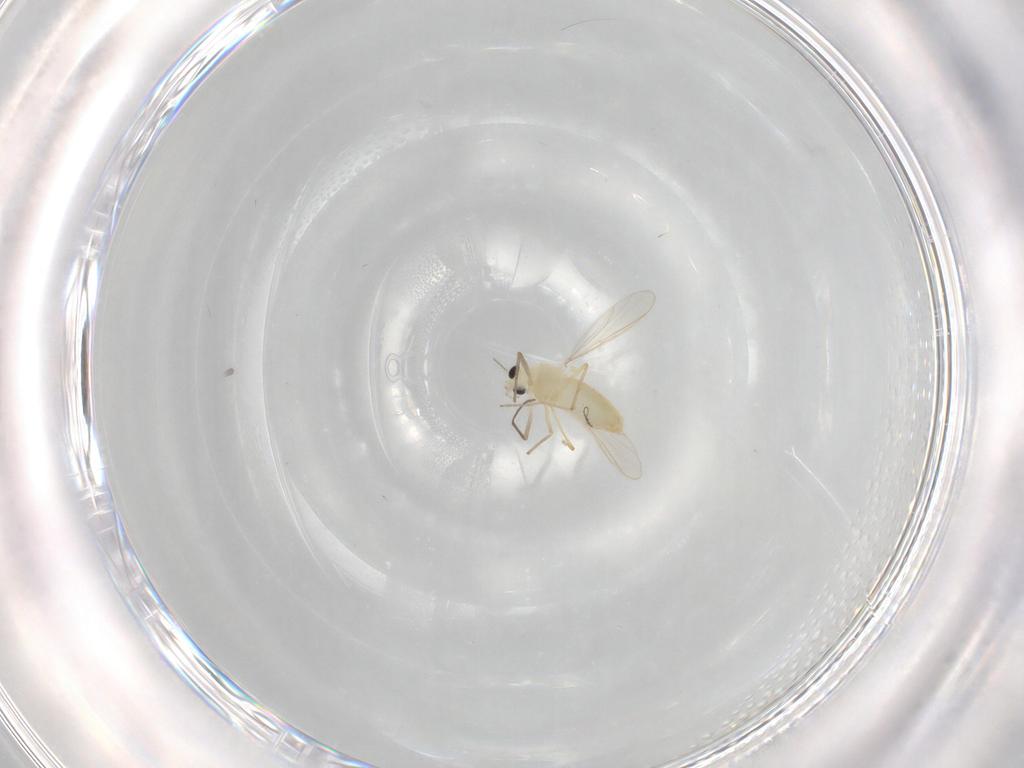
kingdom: Animalia
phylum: Arthropoda
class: Insecta
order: Diptera
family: Chironomidae
